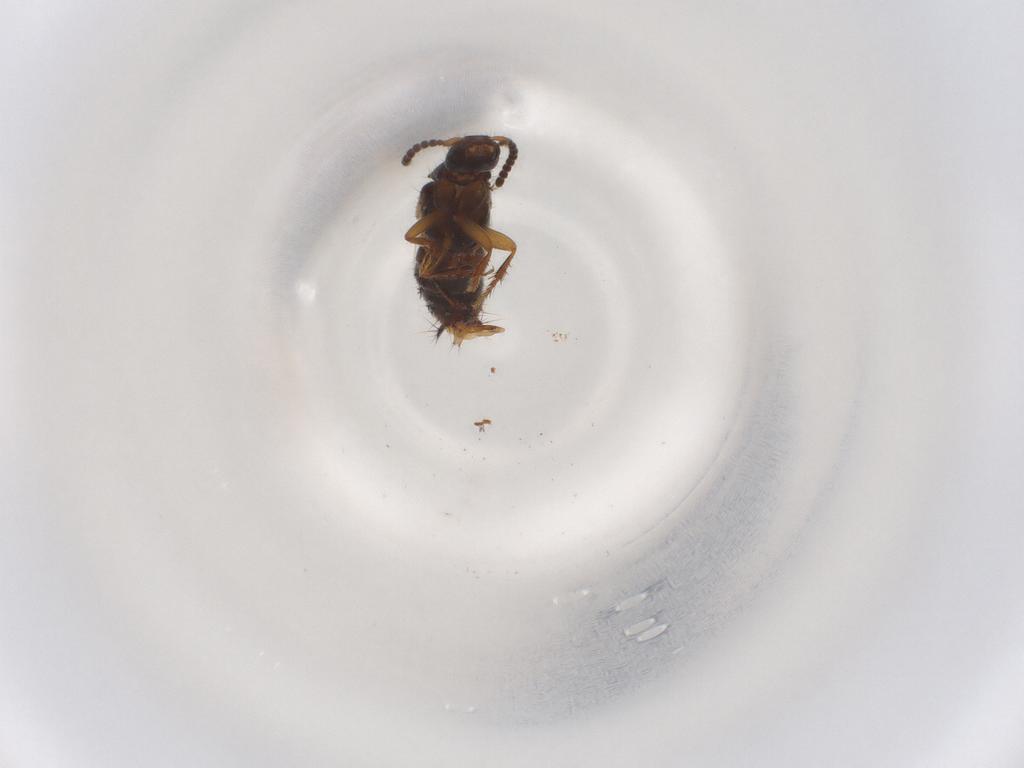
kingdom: Animalia
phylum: Arthropoda
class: Insecta
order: Coleoptera
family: Staphylinidae
